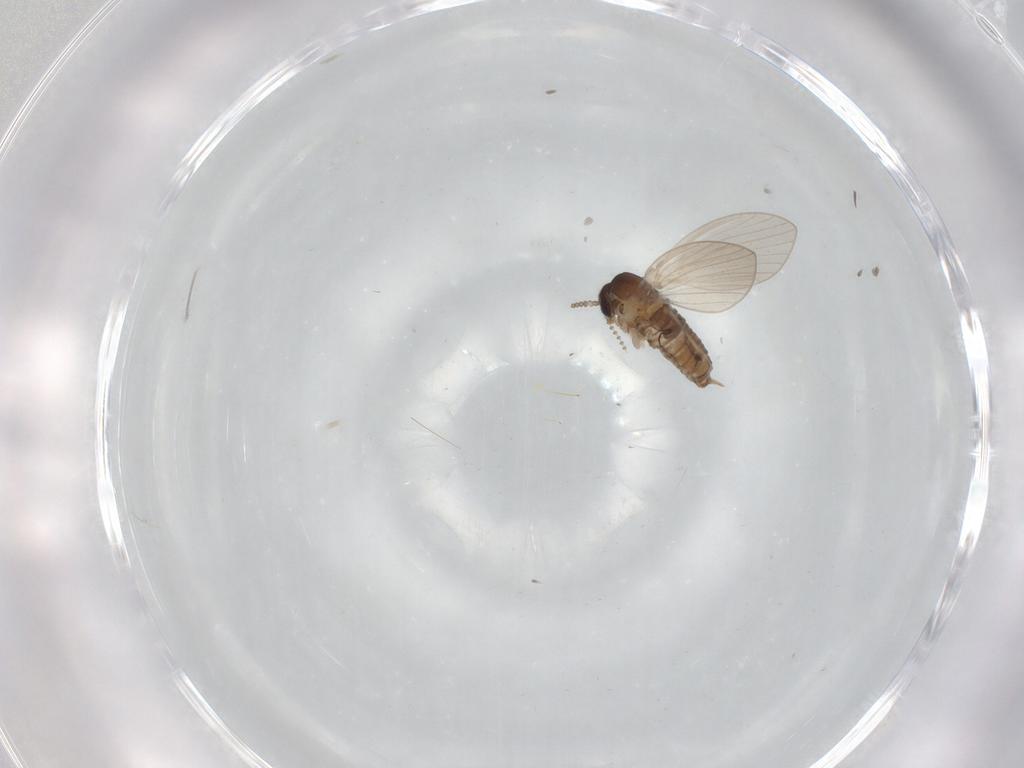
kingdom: Animalia
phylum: Arthropoda
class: Insecta
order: Diptera
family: Psychodidae
